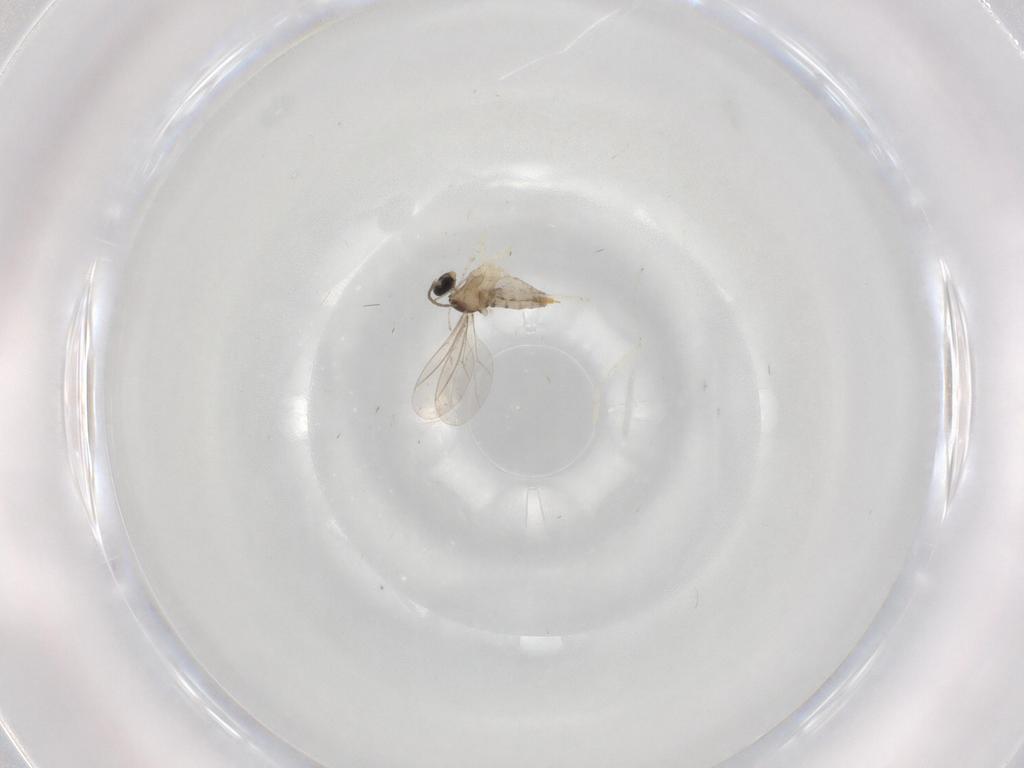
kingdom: Animalia
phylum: Arthropoda
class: Insecta
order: Diptera
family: Cecidomyiidae
